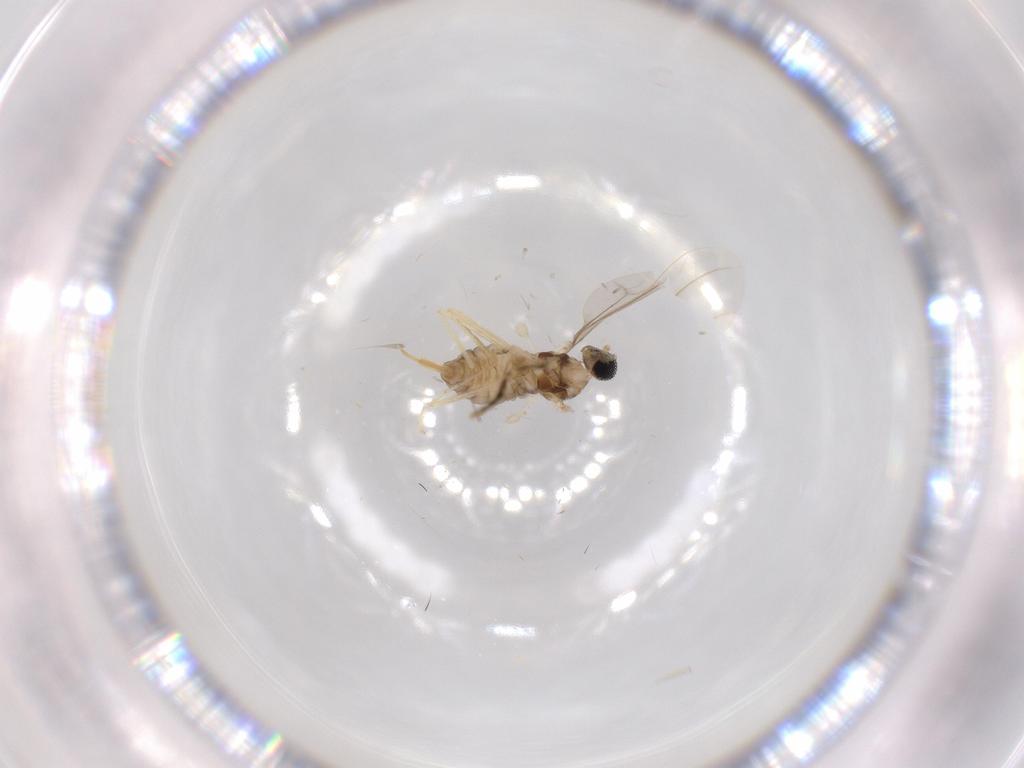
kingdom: Animalia
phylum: Arthropoda
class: Insecta
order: Diptera
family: Cecidomyiidae
